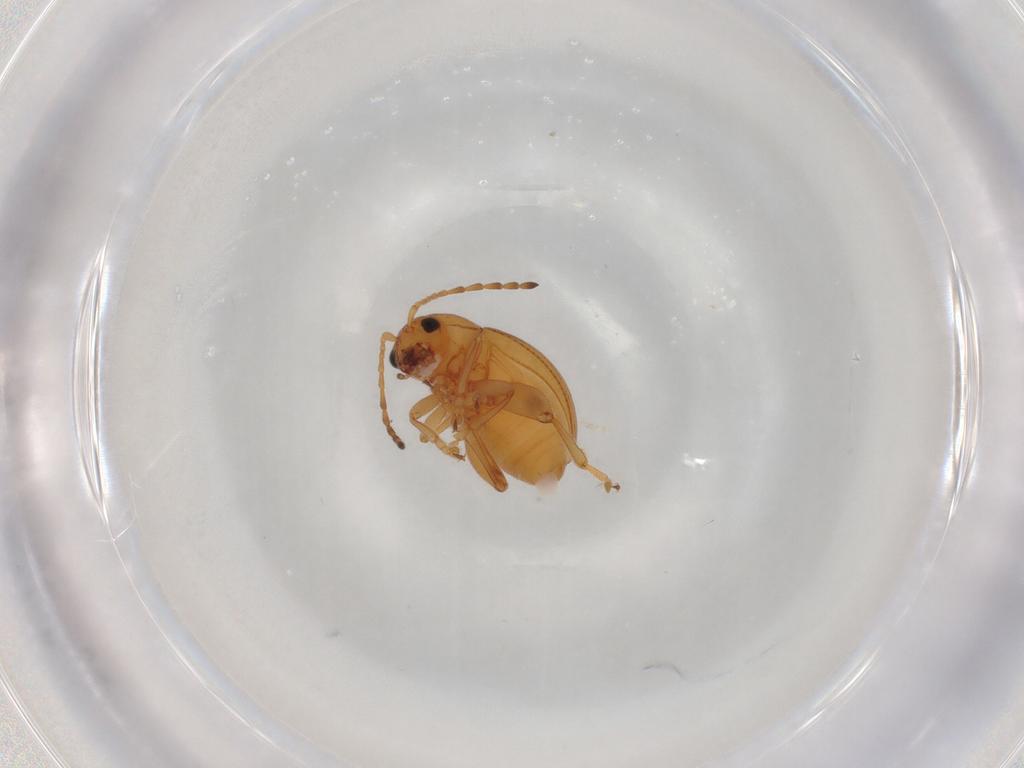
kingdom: Animalia
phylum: Arthropoda
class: Insecta
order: Coleoptera
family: Chrysomelidae
